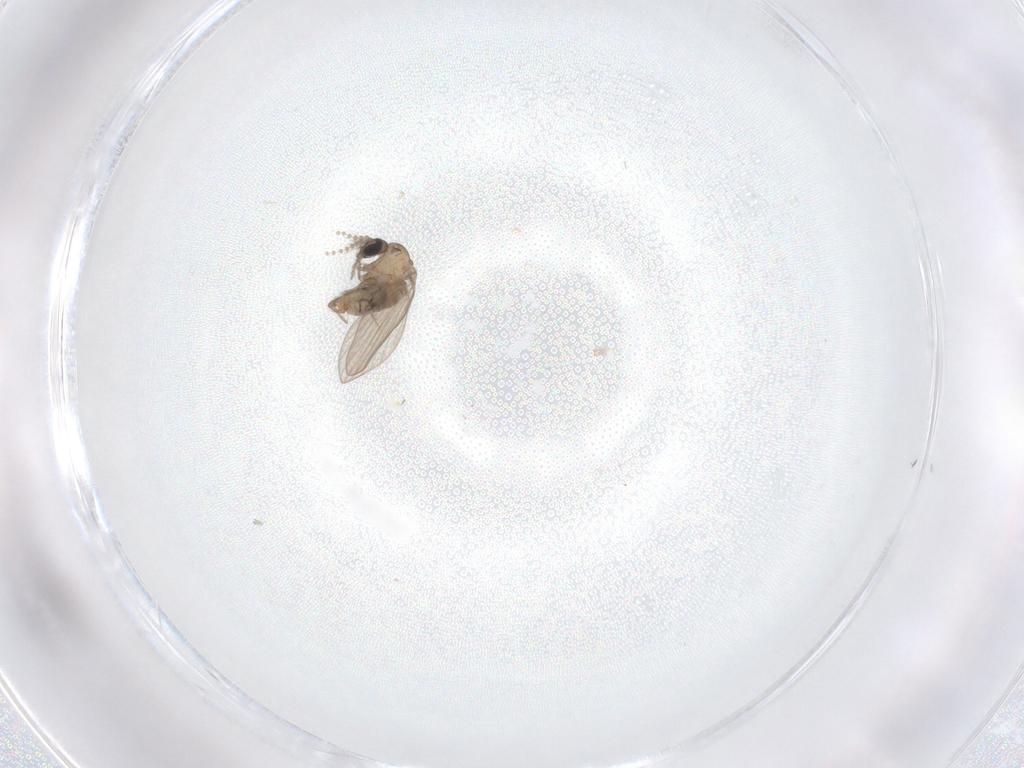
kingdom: Animalia
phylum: Arthropoda
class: Insecta
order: Diptera
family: Psychodidae
